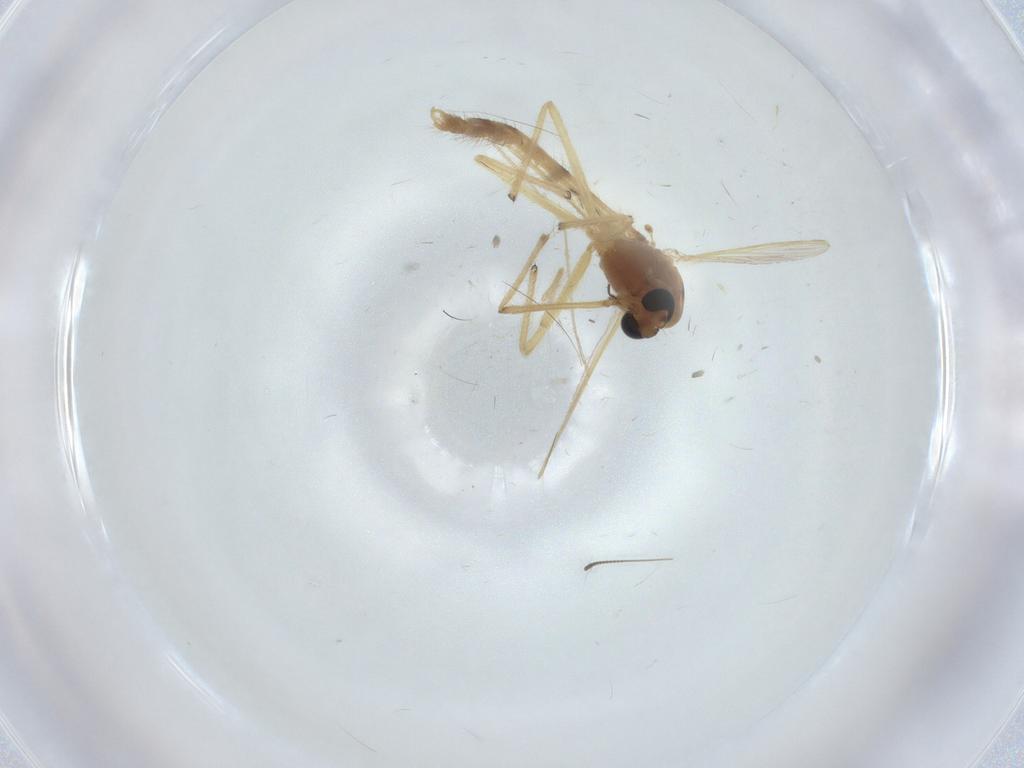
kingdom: Animalia
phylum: Arthropoda
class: Insecta
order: Diptera
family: Chironomidae
